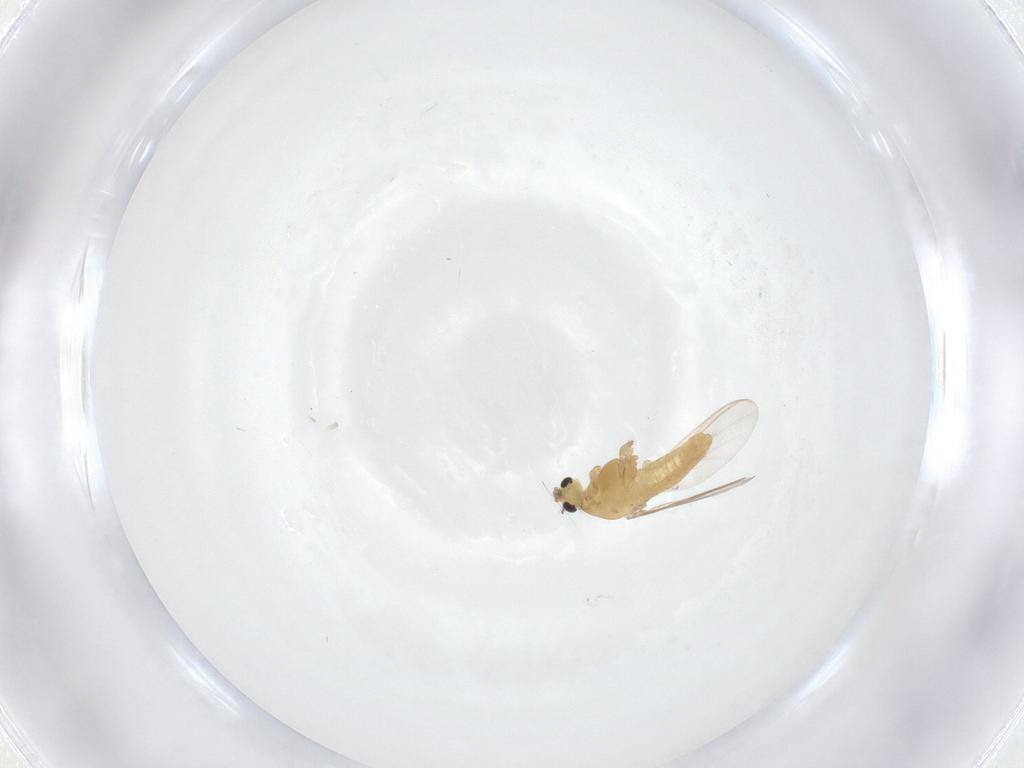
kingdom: Animalia
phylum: Arthropoda
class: Insecta
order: Diptera
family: Chironomidae
